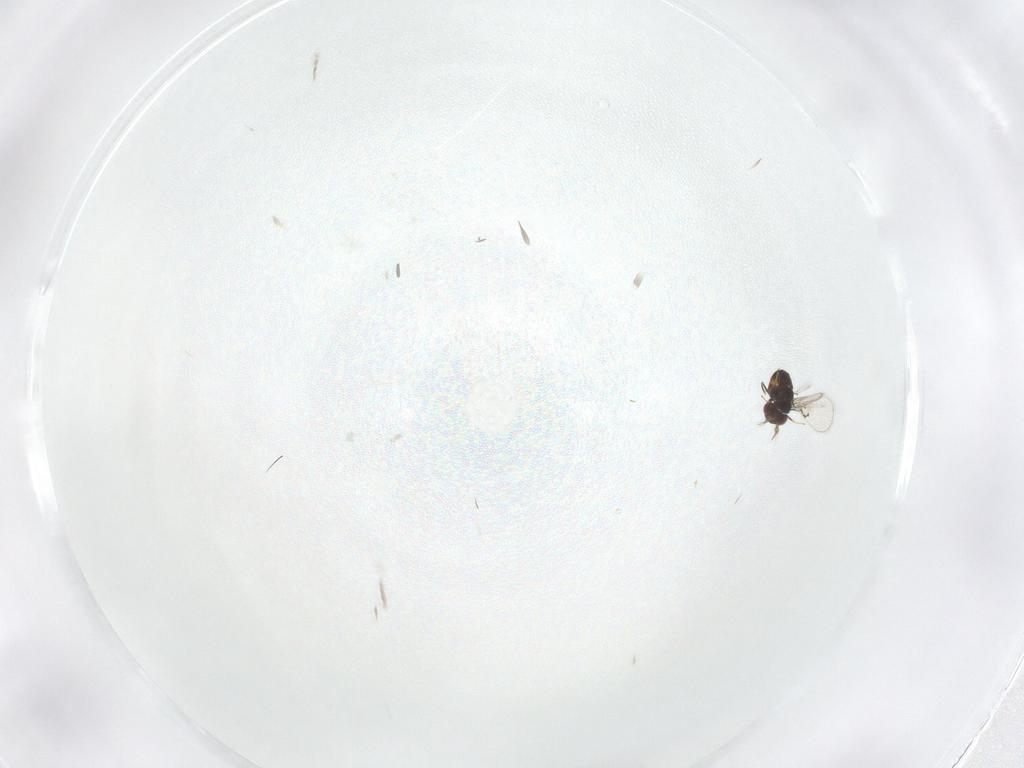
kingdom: Animalia
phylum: Arthropoda
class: Insecta
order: Hymenoptera
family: Trichogrammatidae
